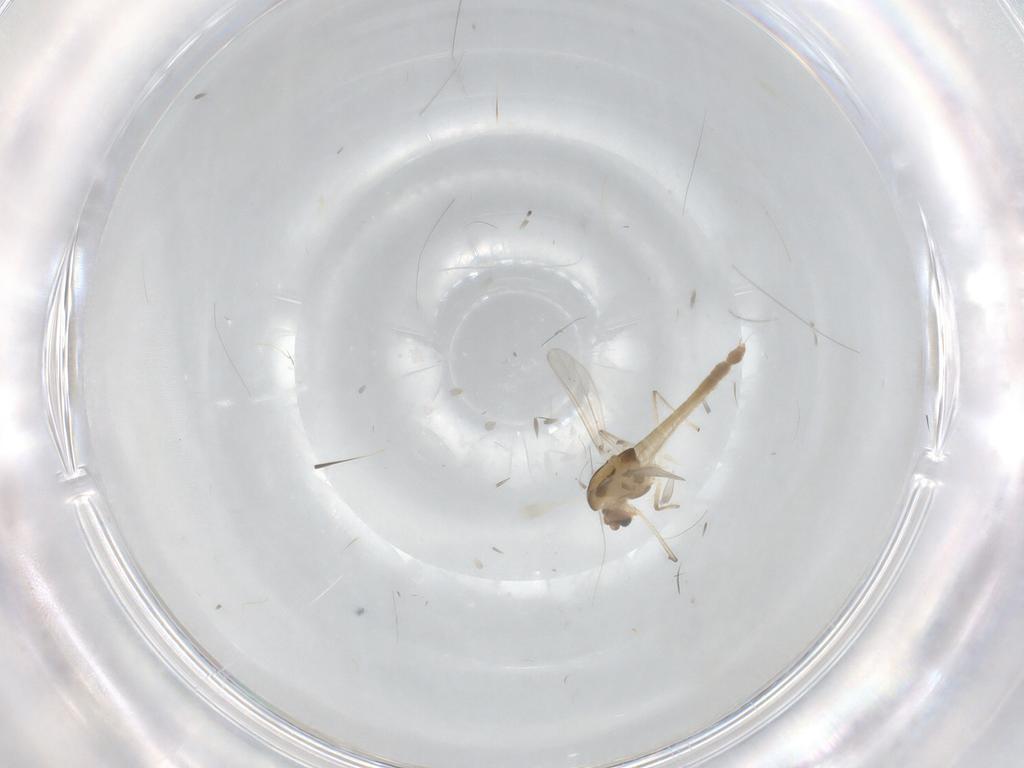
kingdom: Animalia
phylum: Arthropoda
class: Insecta
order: Diptera
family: Chironomidae
